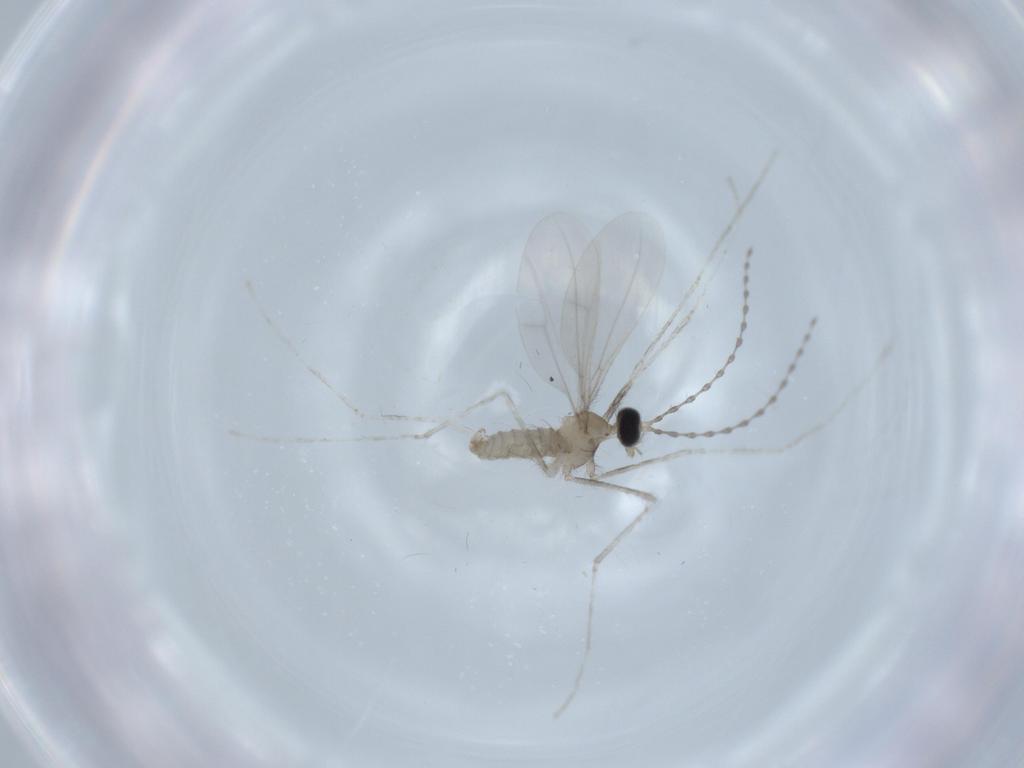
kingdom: Animalia
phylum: Arthropoda
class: Insecta
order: Diptera
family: Cecidomyiidae
